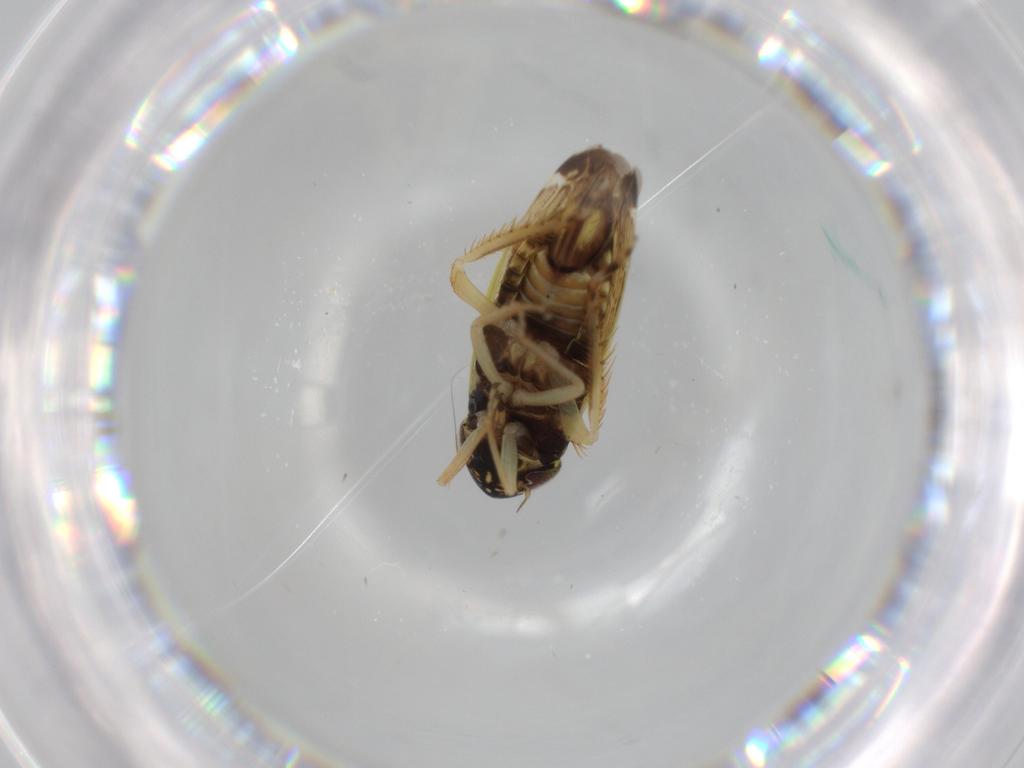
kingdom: Animalia
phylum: Arthropoda
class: Insecta
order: Hemiptera
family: Cicadellidae
